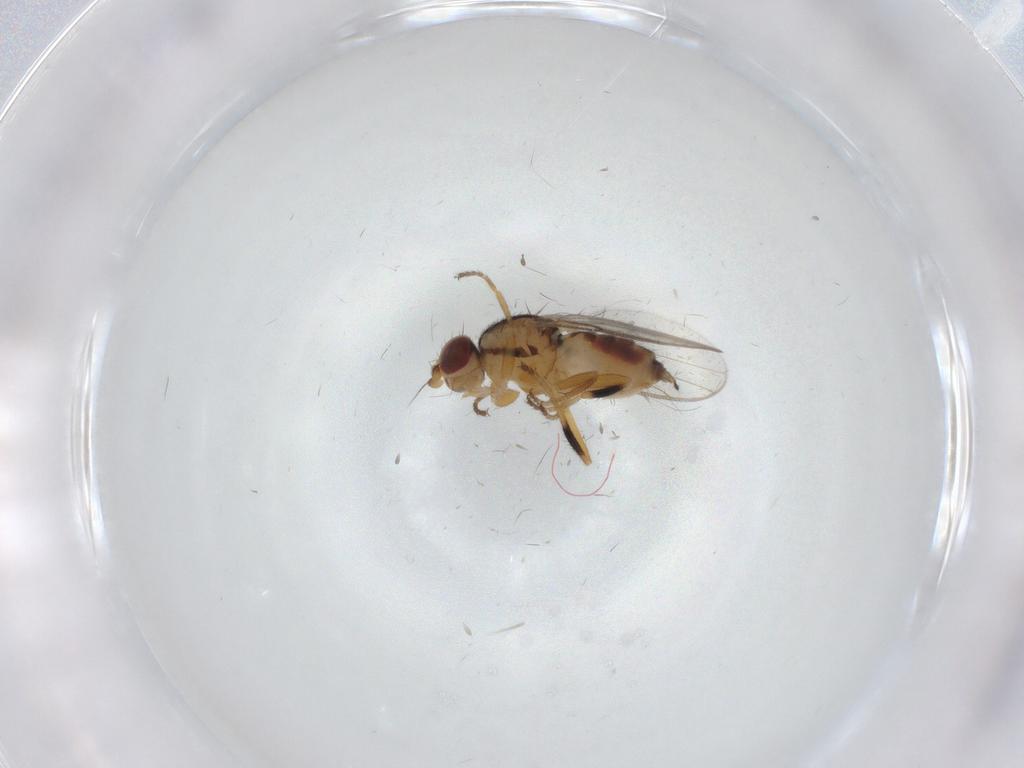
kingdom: Animalia
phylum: Arthropoda
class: Insecta
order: Diptera
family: Chloropidae
